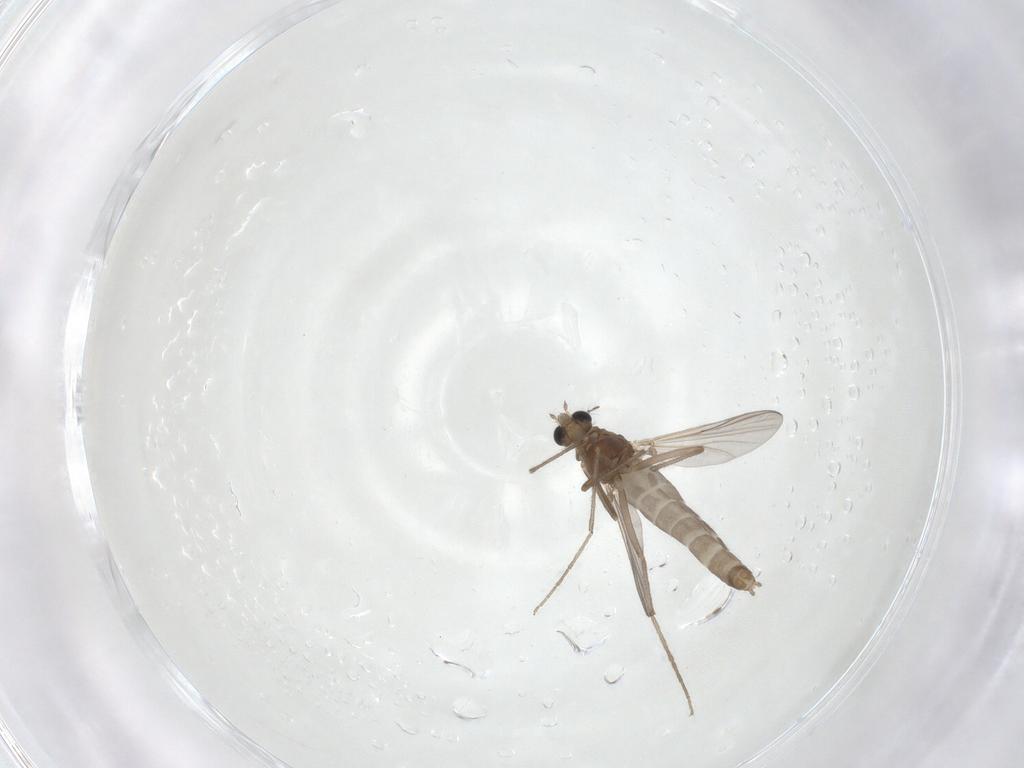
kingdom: Animalia
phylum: Arthropoda
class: Insecta
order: Diptera
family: Chironomidae
